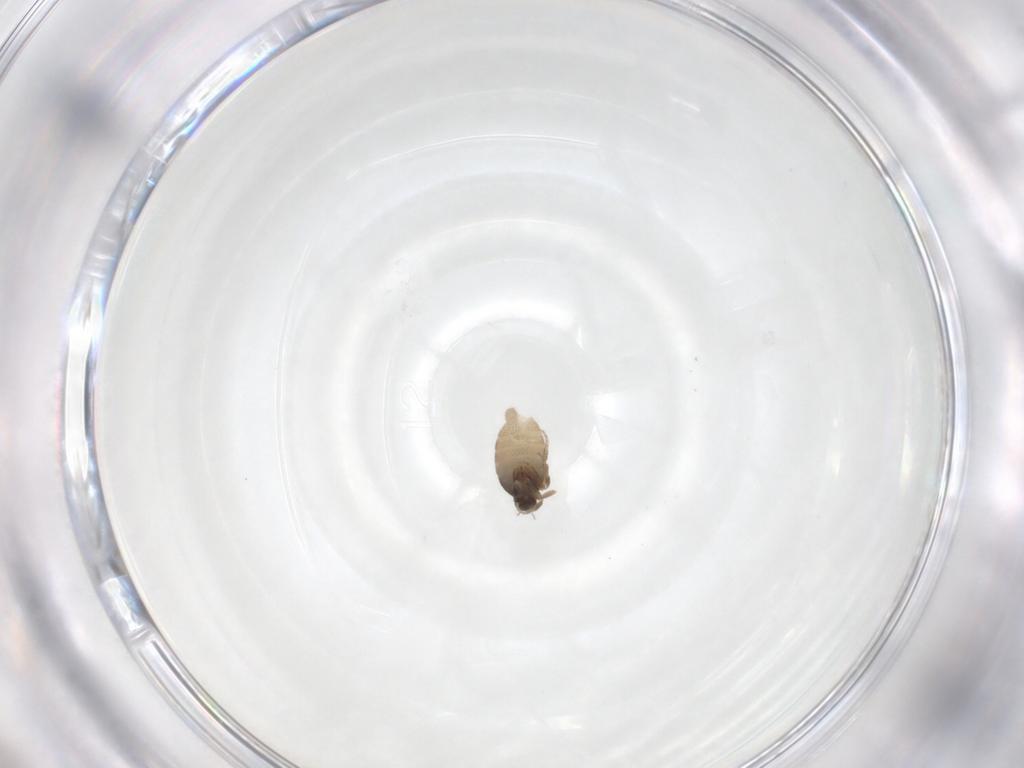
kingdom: Animalia
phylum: Arthropoda
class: Insecta
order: Diptera
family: Phoridae
